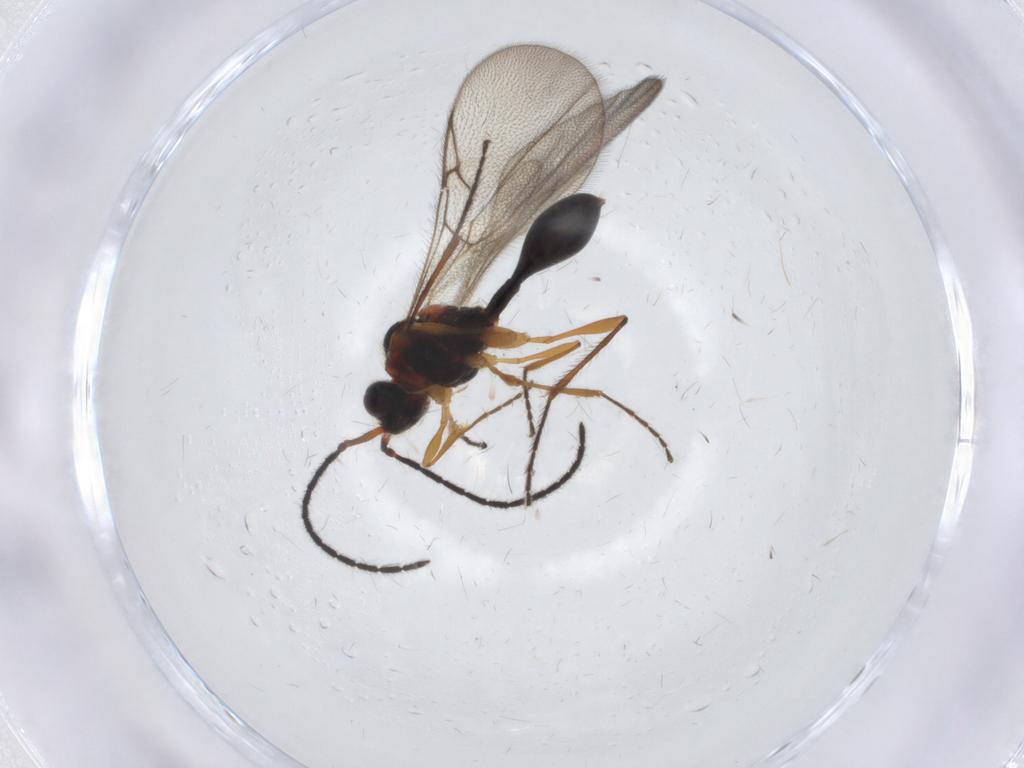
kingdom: Animalia
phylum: Arthropoda
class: Insecta
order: Hymenoptera
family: Diapriidae
